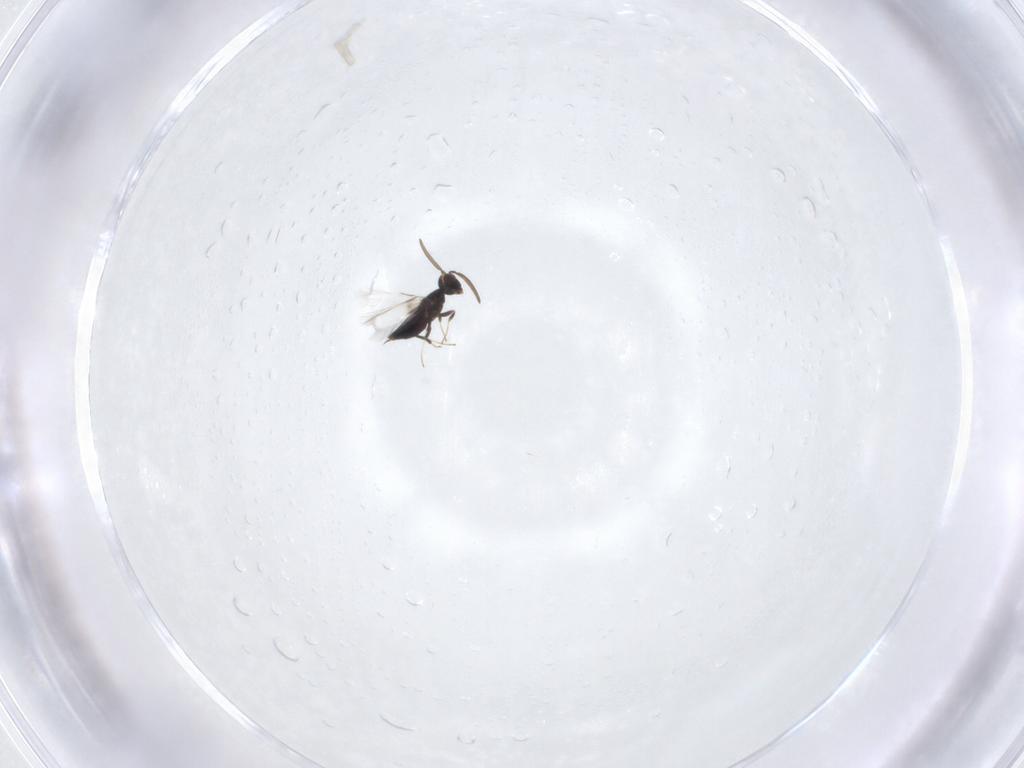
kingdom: Animalia
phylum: Arthropoda
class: Insecta
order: Hymenoptera
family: Signiphoridae
